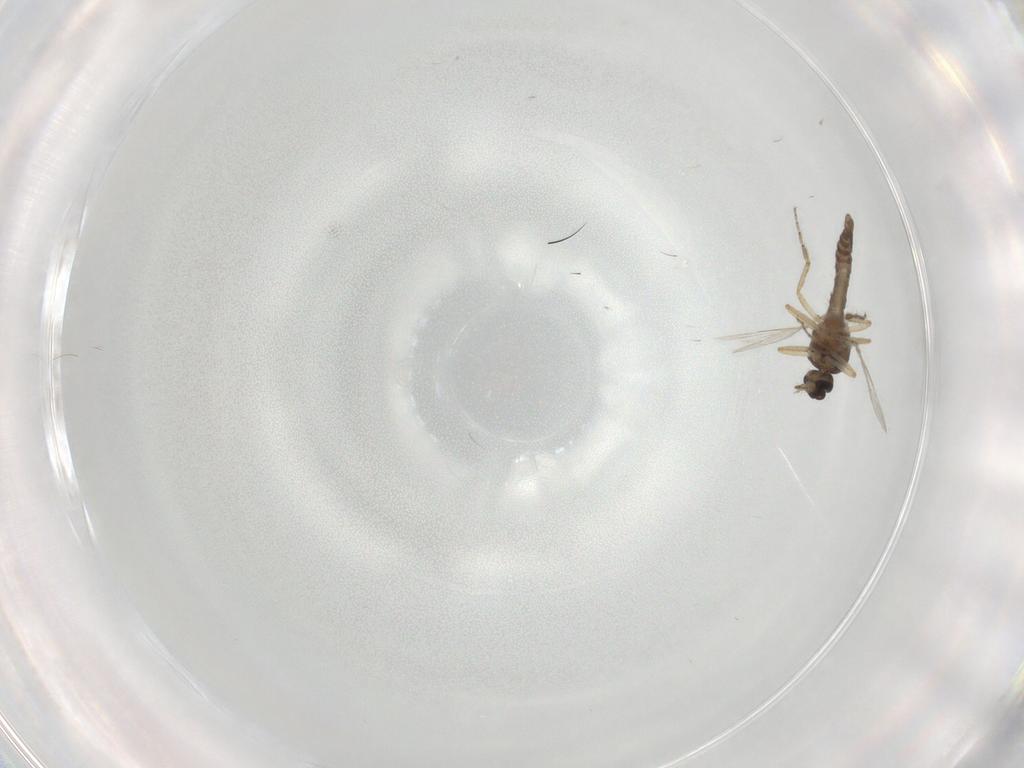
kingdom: Animalia
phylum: Arthropoda
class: Insecta
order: Diptera
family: Ceratopogonidae
